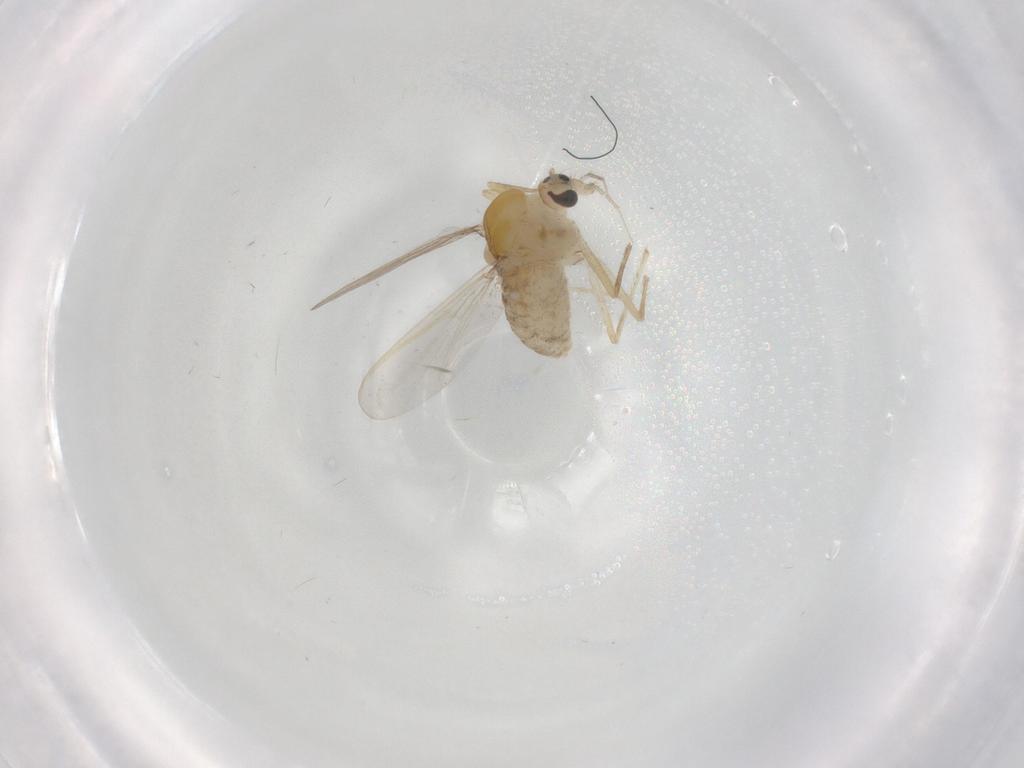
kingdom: Animalia
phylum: Arthropoda
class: Insecta
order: Diptera
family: Chironomidae
